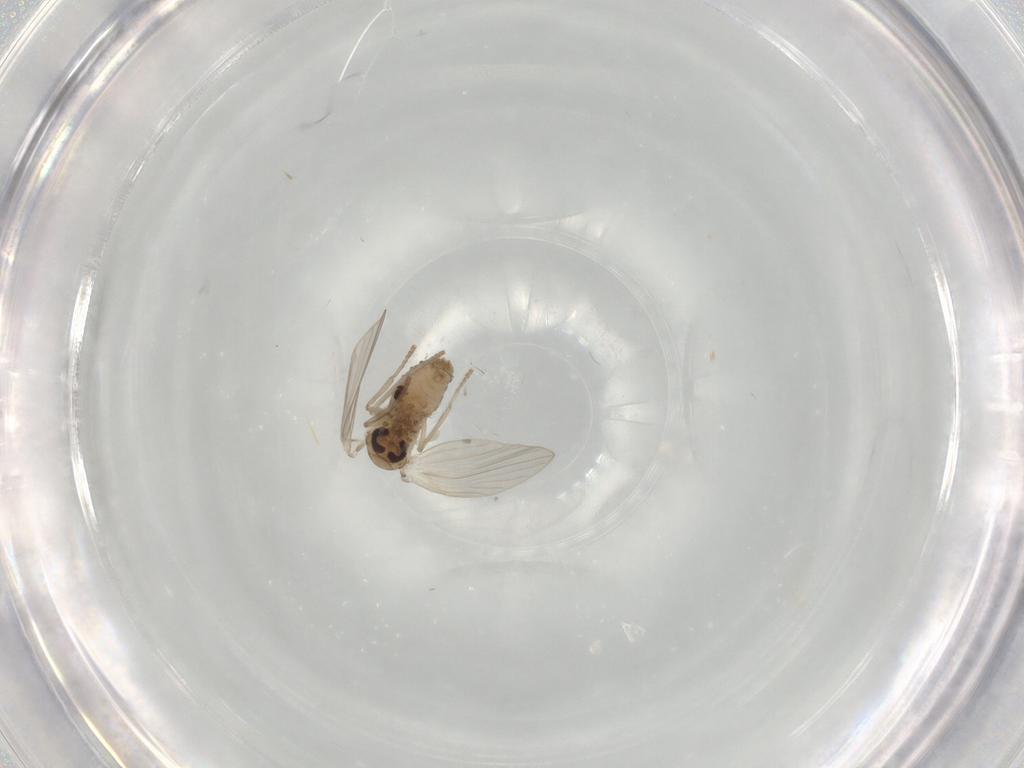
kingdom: Animalia
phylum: Arthropoda
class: Insecta
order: Diptera
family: Psychodidae
